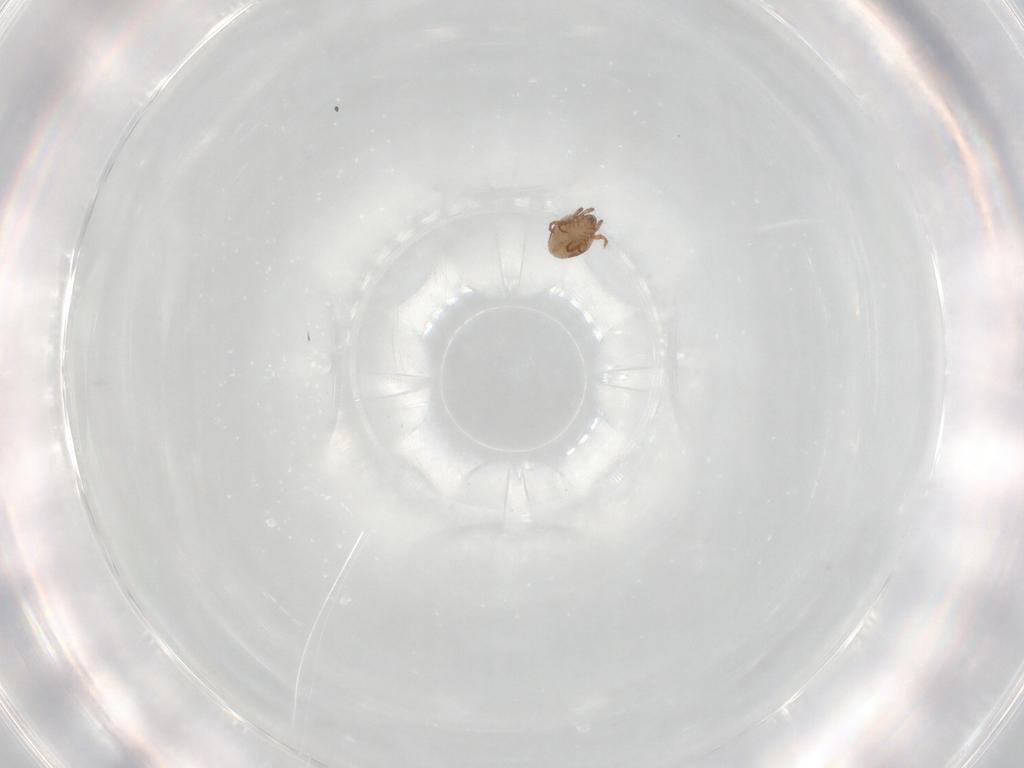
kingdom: Animalia
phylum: Arthropoda
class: Arachnida
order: Sarcoptiformes
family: Humerobatidae
